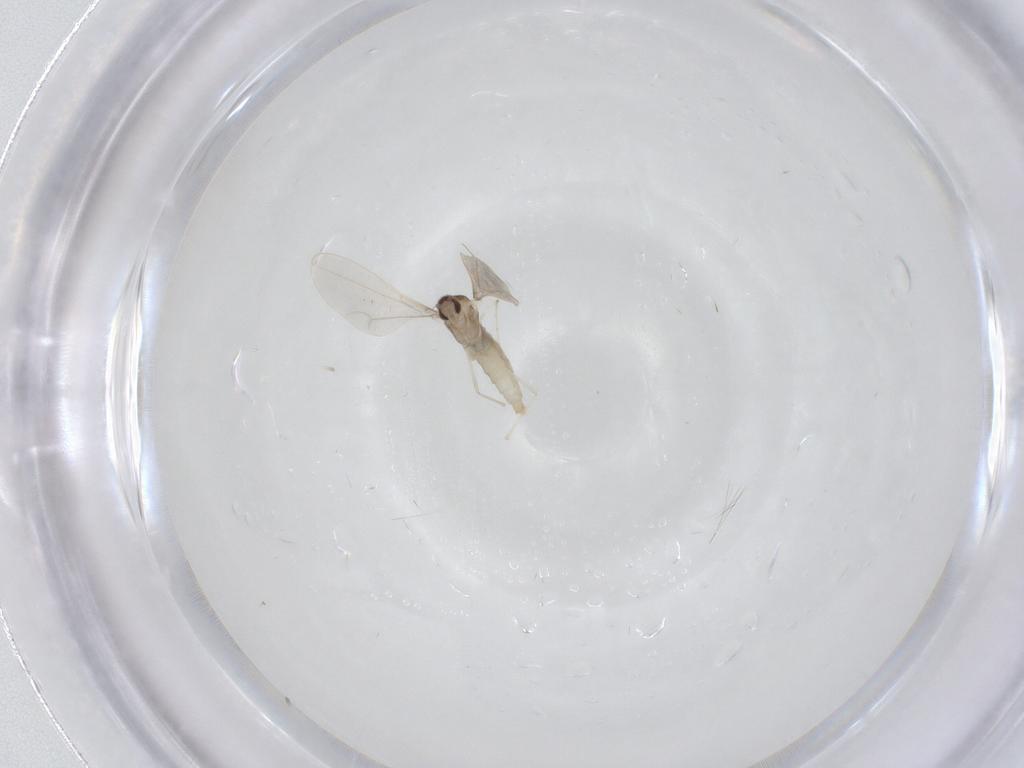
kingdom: Animalia
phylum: Arthropoda
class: Insecta
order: Diptera
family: Cecidomyiidae
